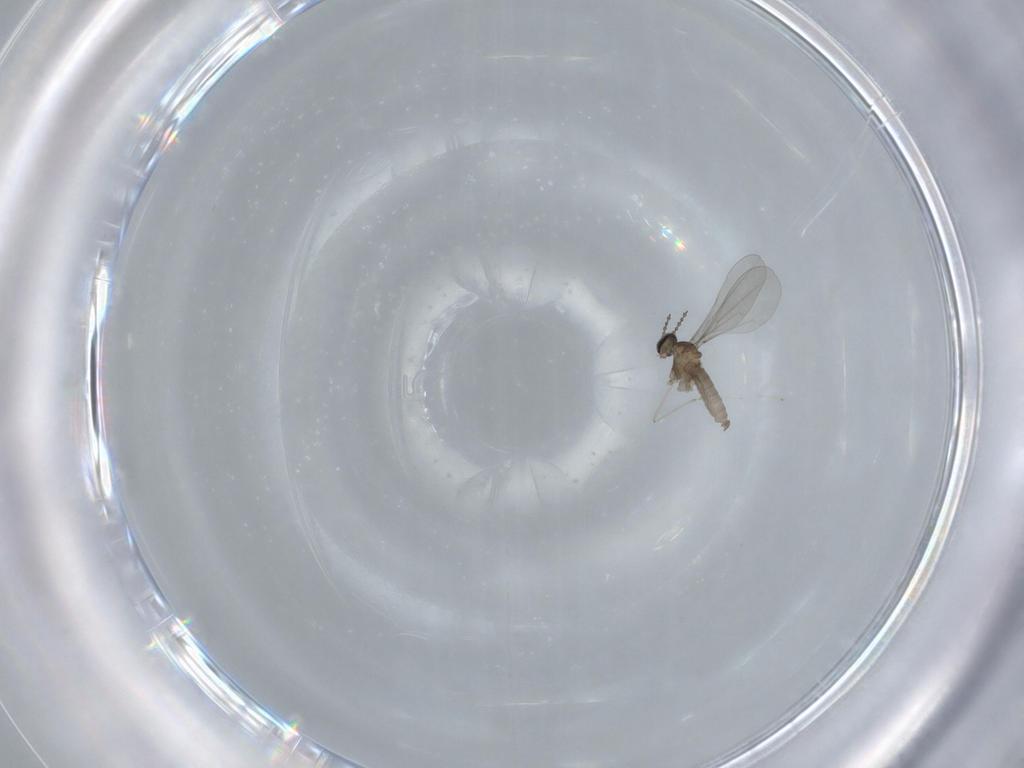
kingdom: Animalia
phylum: Arthropoda
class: Insecta
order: Diptera
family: Cecidomyiidae
